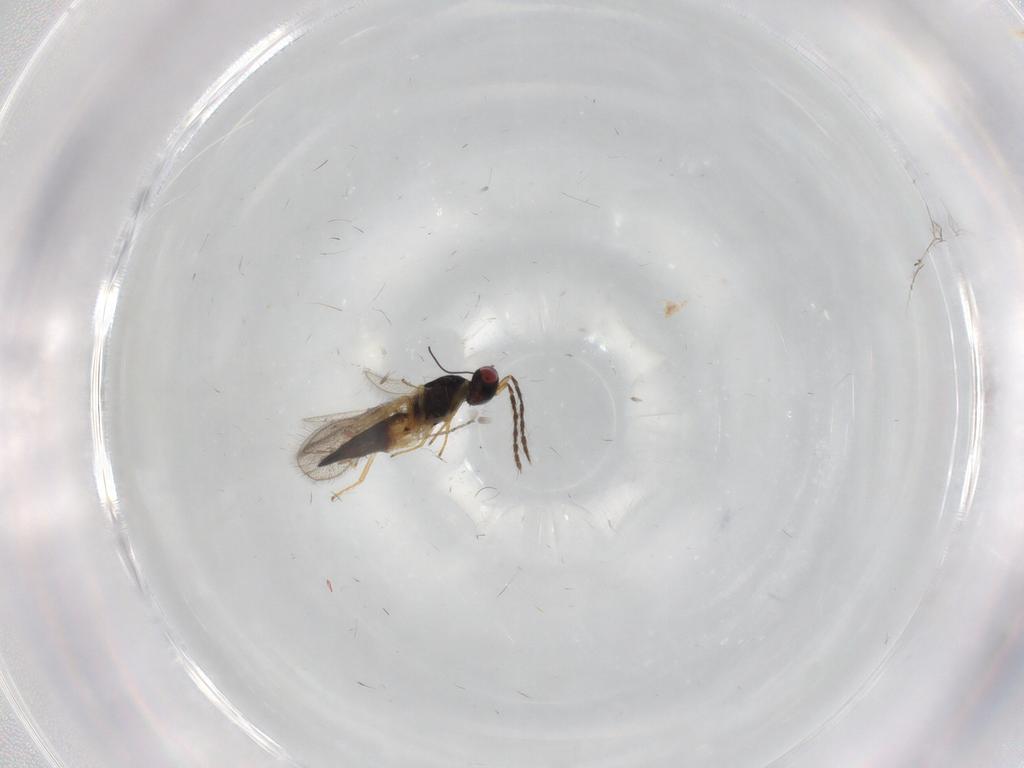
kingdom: Animalia
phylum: Arthropoda
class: Insecta
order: Hymenoptera
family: Eulophidae
